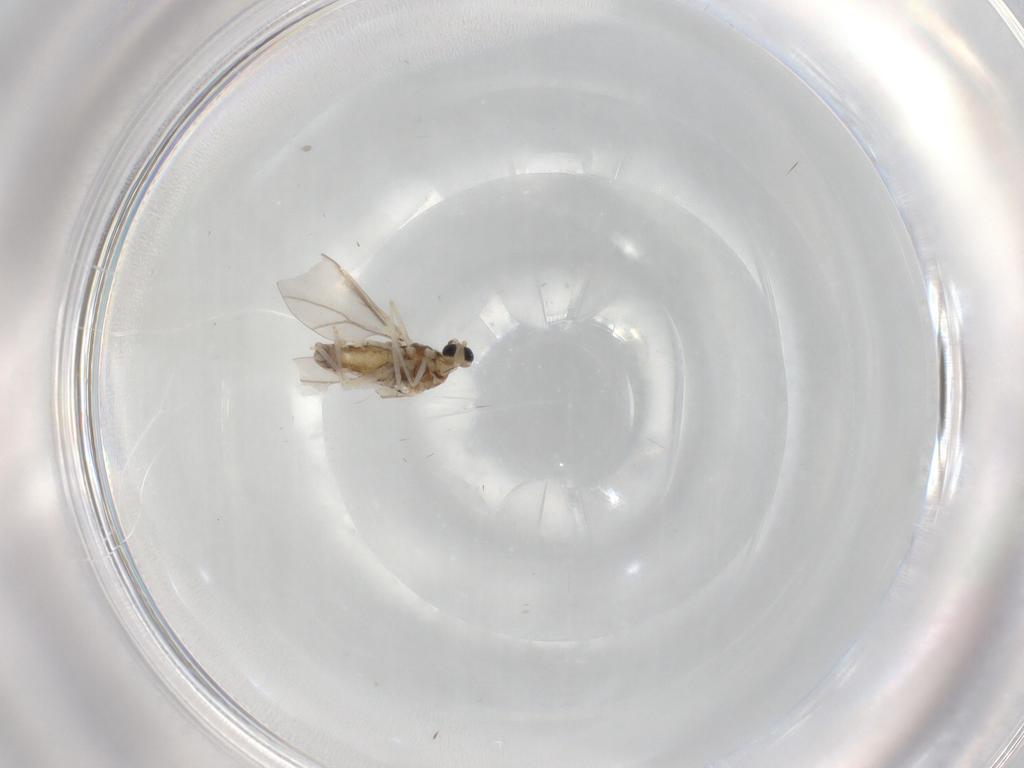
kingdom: Animalia
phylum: Arthropoda
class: Insecta
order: Diptera
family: Cecidomyiidae
